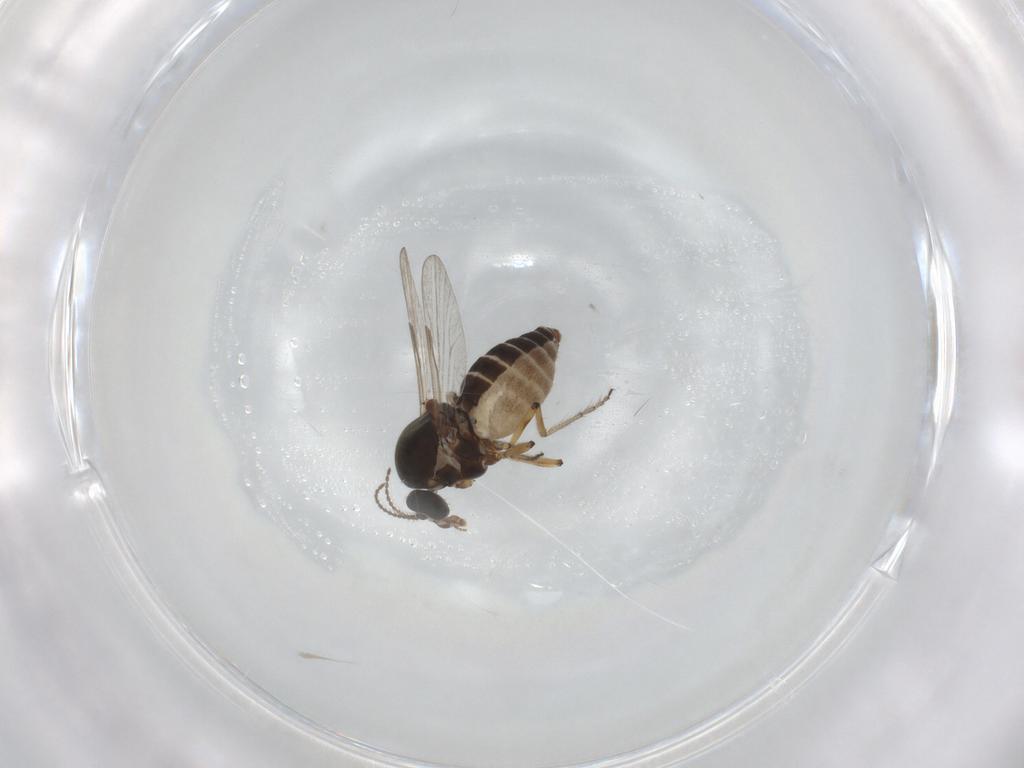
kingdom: Animalia
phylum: Arthropoda
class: Insecta
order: Diptera
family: Ceratopogonidae
